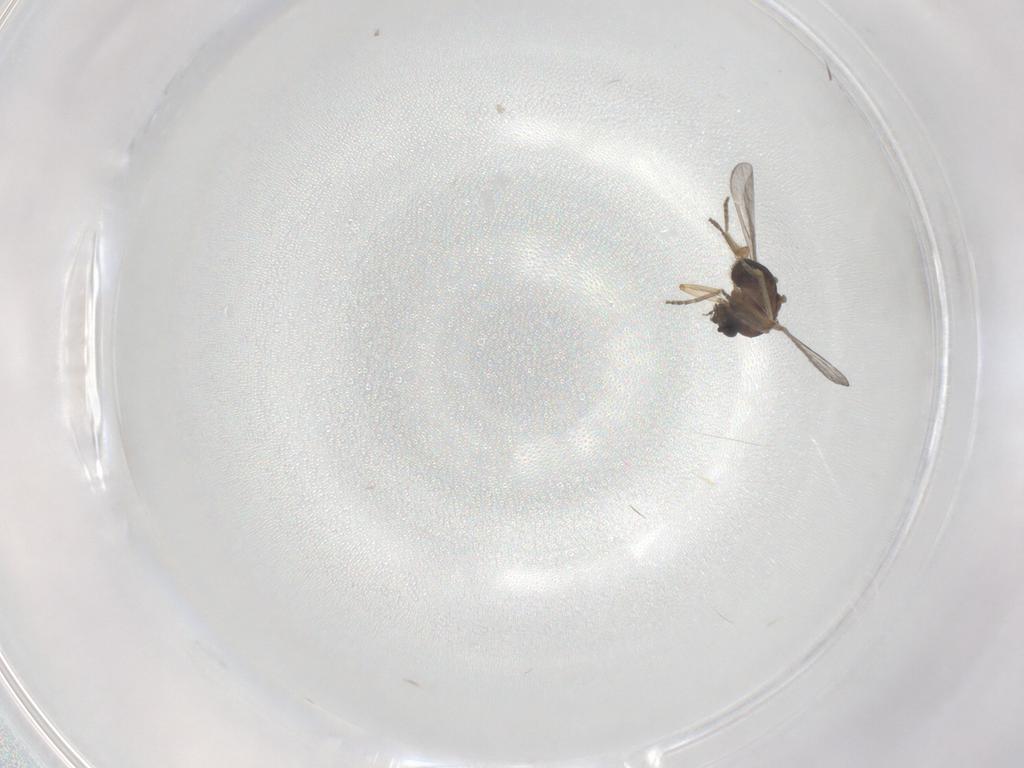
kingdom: Animalia
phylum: Arthropoda
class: Insecta
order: Diptera
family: Ceratopogonidae
